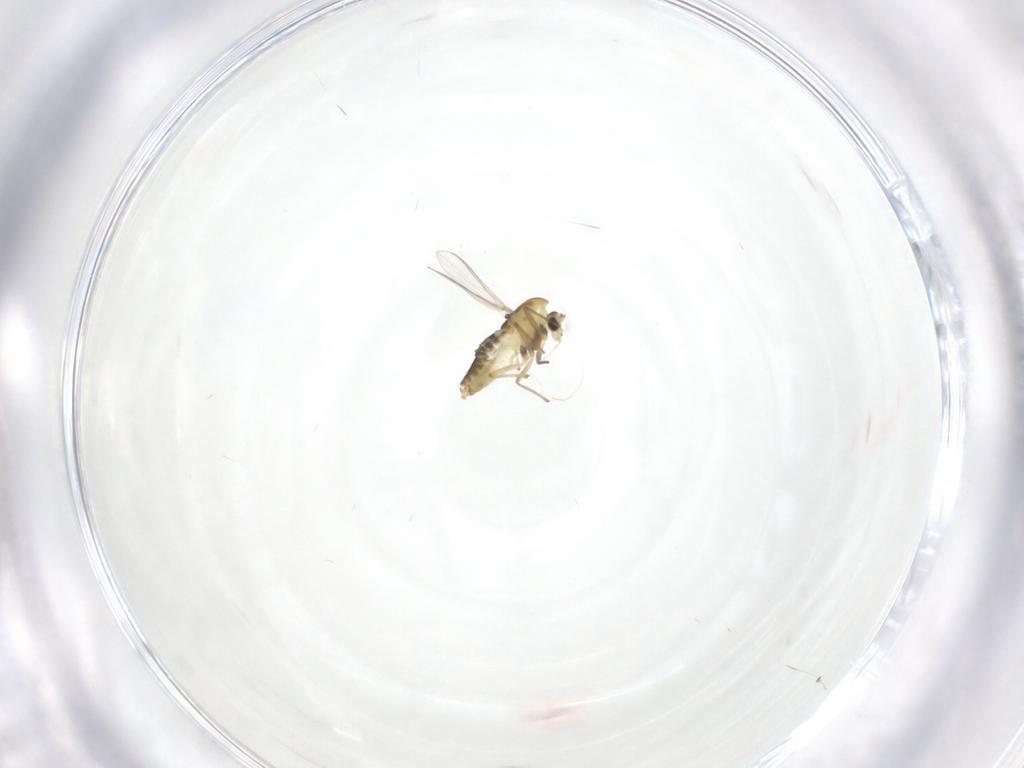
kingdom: Animalia
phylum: Arthropoda
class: Insecta
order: Diptera
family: Chironomidae
